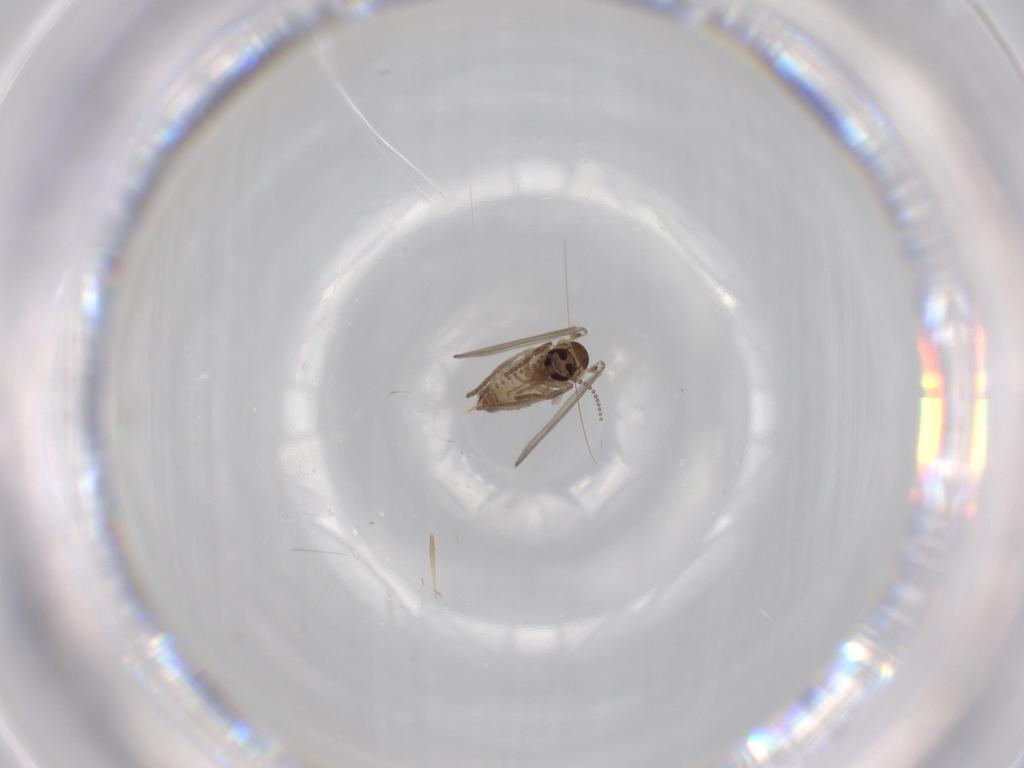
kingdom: Animalia
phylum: Arthropoda
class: Insecta
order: Diptera
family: Psychodidae
